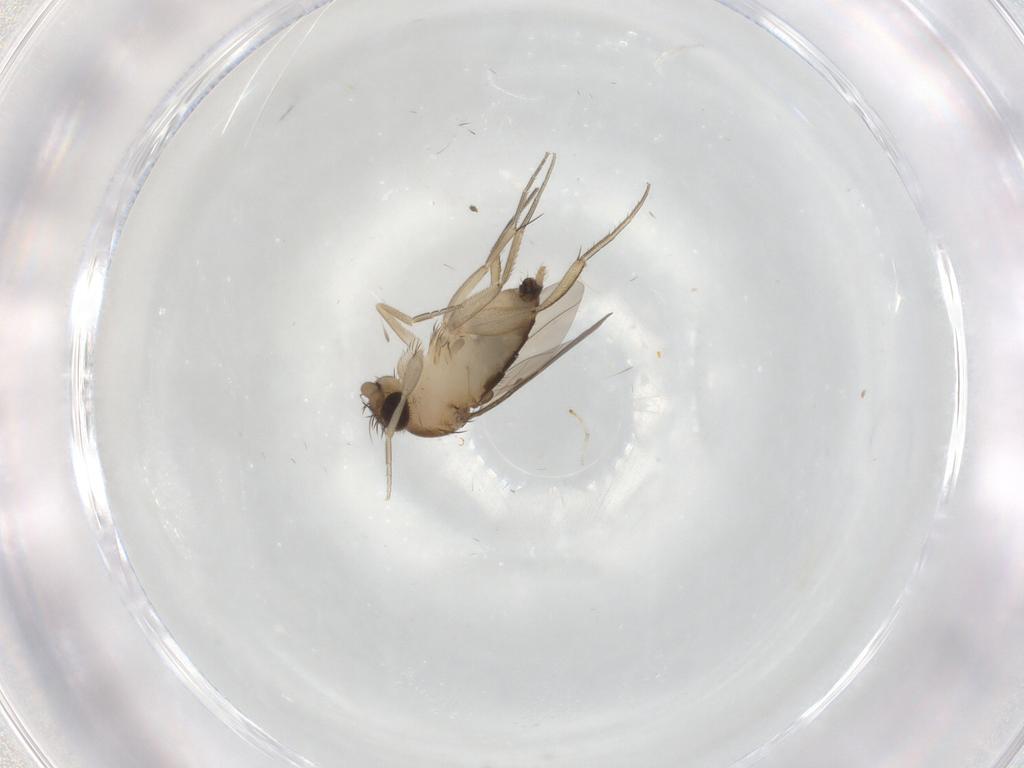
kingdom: Animalia
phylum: Arthropoda
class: Insecta
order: Diptera
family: Phoridae
